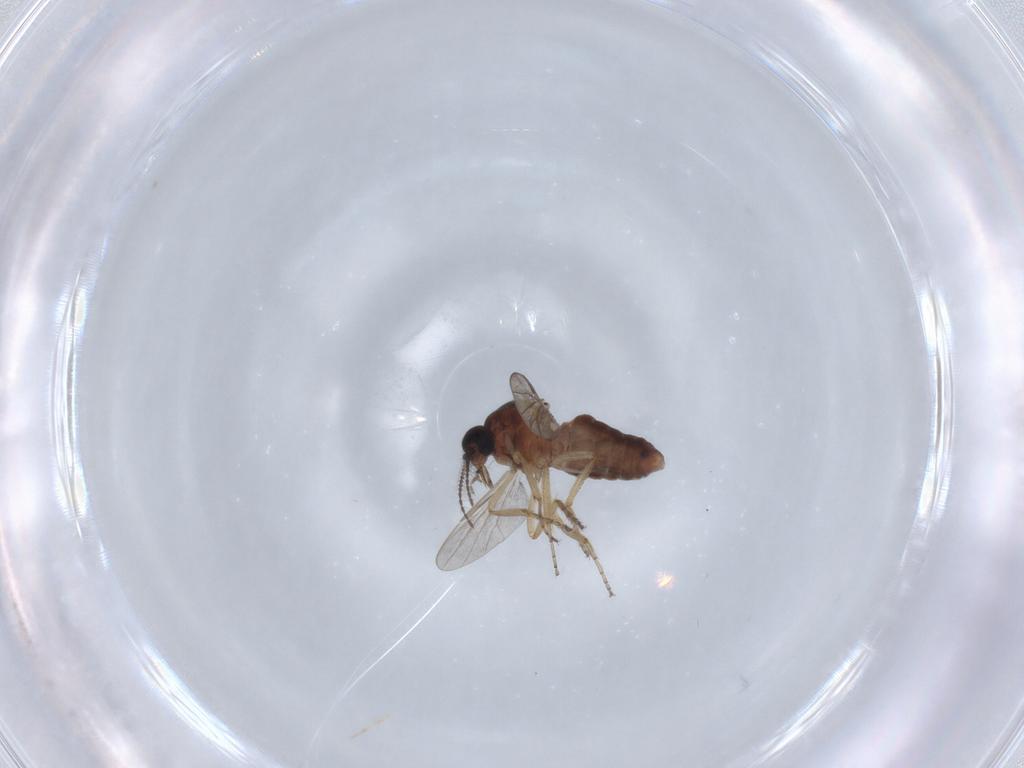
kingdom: Animalia
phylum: Arthropoda
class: Insecta
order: Diptera
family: Ceratopogonidae
